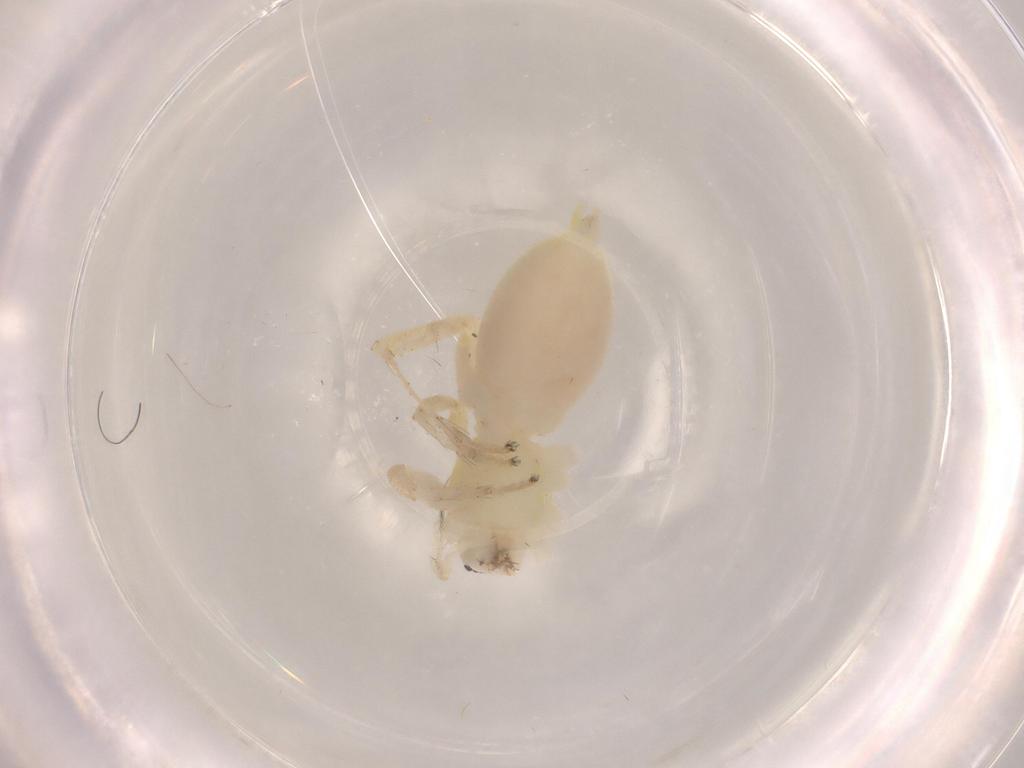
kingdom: Animalia
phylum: Arthropoda
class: Arachnida
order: Araneae
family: Anyphaenidae
